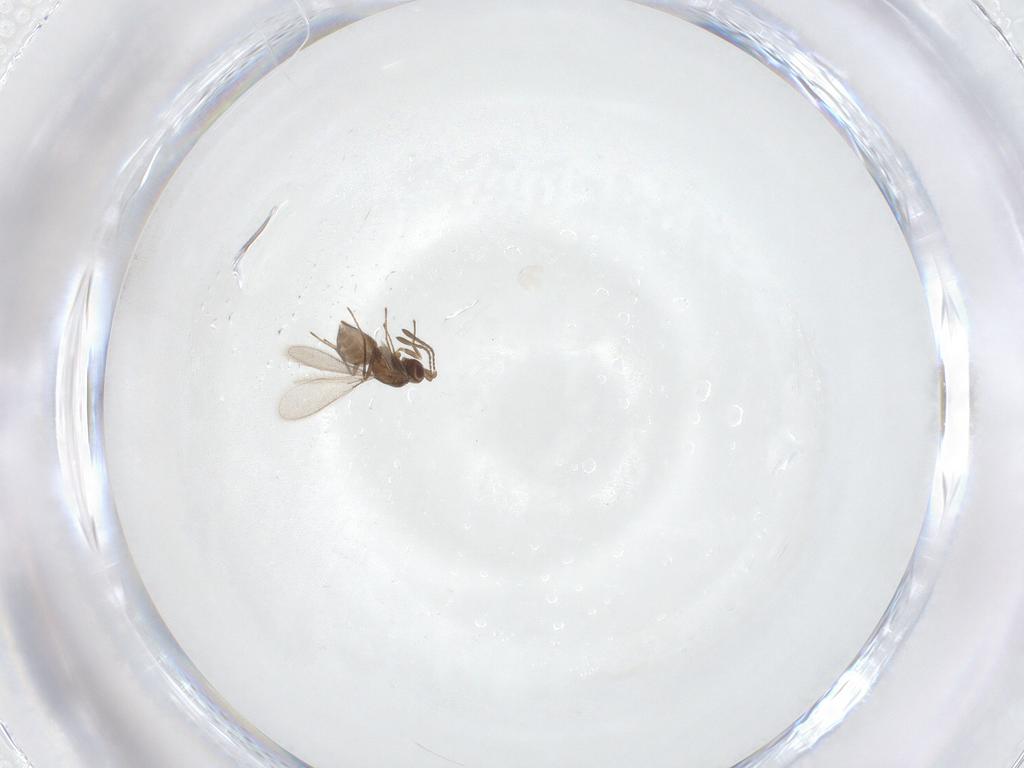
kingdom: Animalia
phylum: Arthropoda
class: Insecta
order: Hymenoptera
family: Mymaridae
